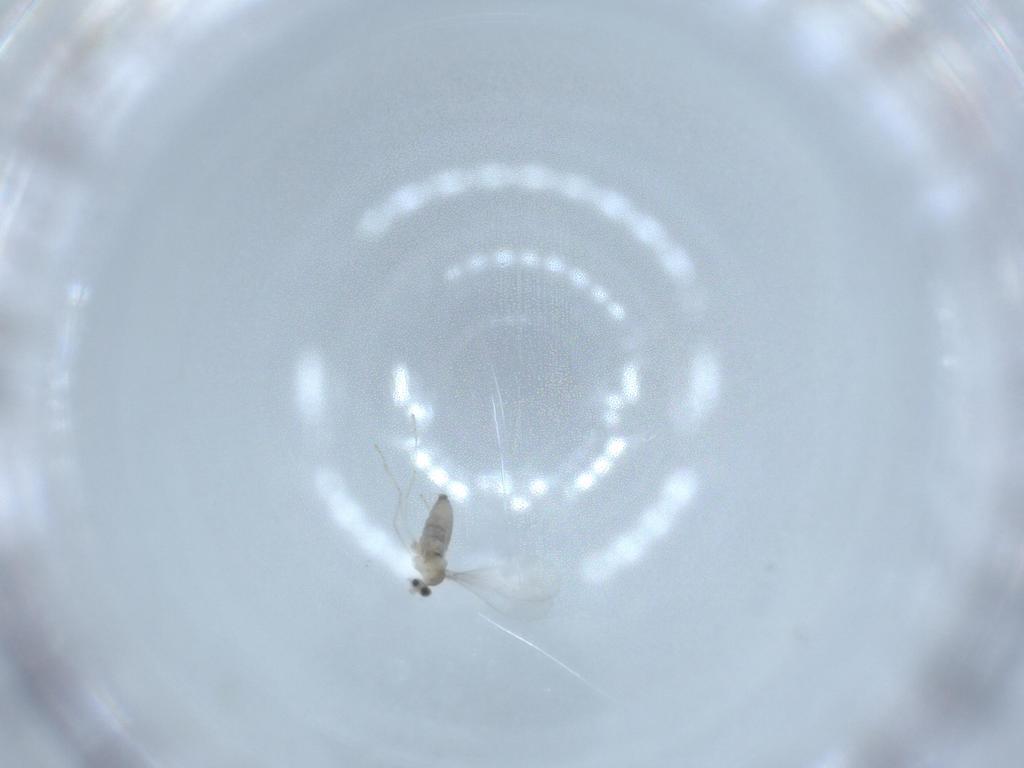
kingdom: Animalia
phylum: Arthropoda
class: Insecta
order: Diptera
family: Cecidomyiidae
